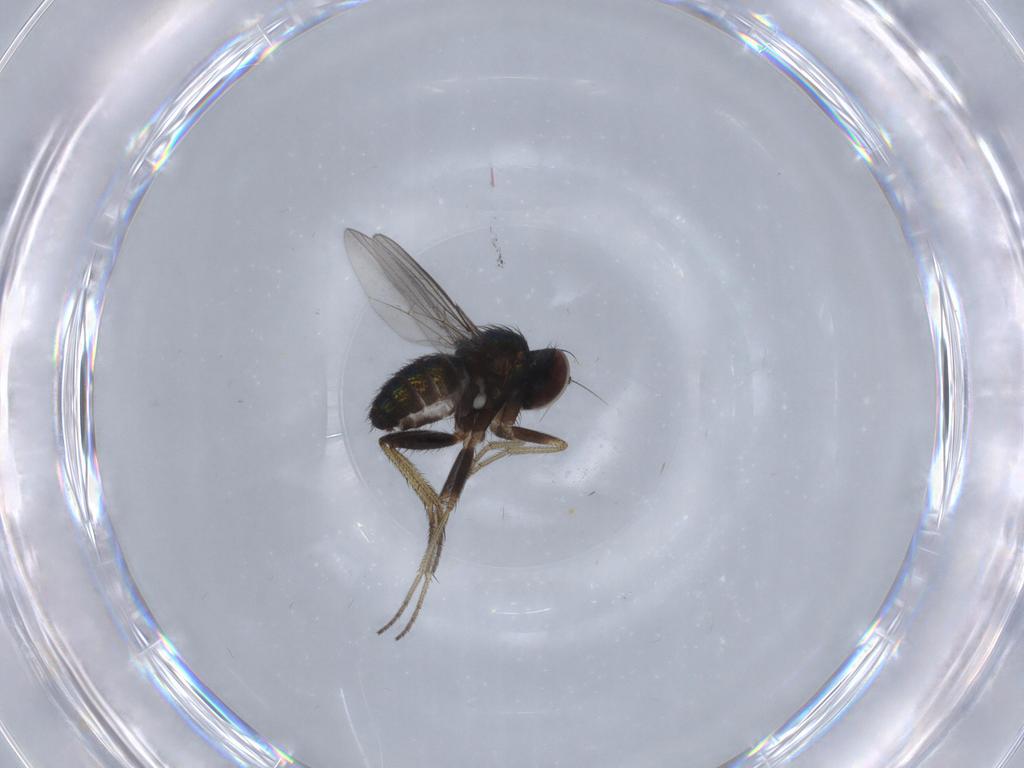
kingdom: Animalia
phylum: Arthropoda
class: Insecta
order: Diptera
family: Dolichopodidae
